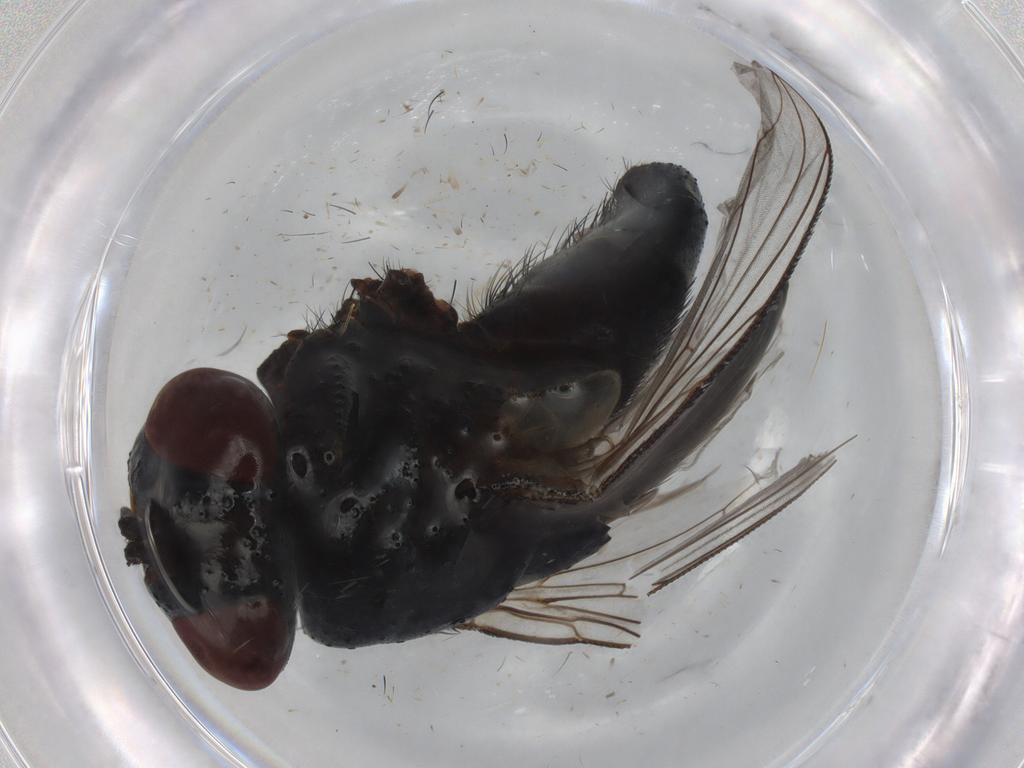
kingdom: Animalia
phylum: Arthropoda
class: Insecta
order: Diptera
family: Tachinidae
